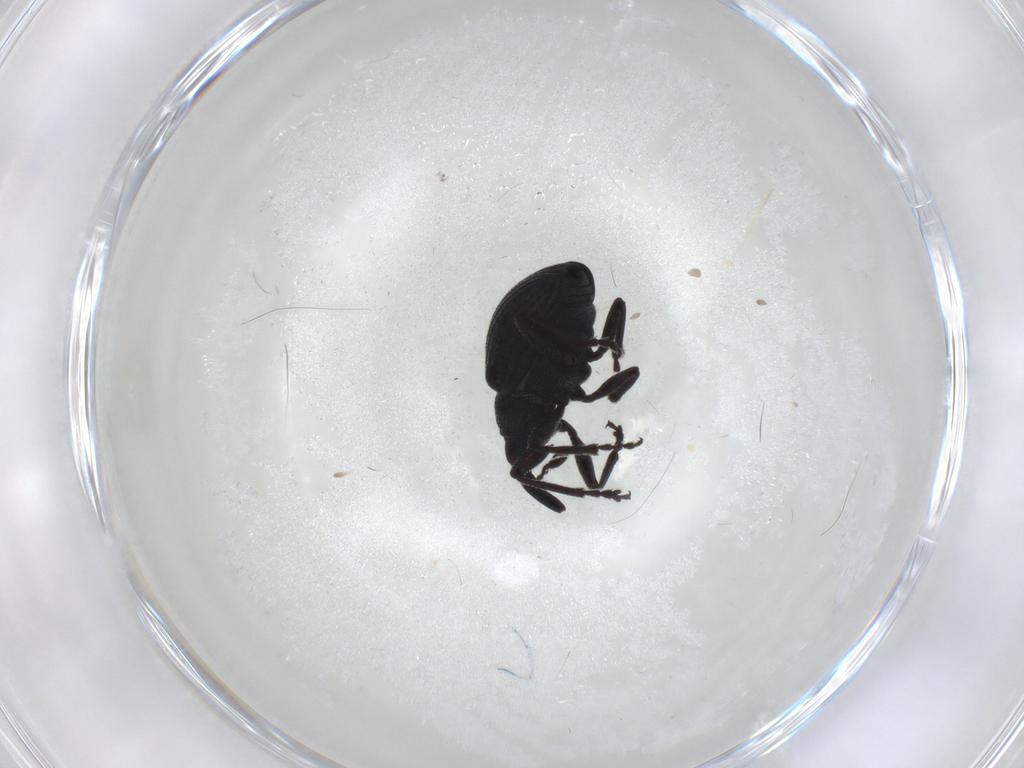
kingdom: Animalia
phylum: Arthropoda
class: Insecta
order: Coleoptera
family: Brentidae
